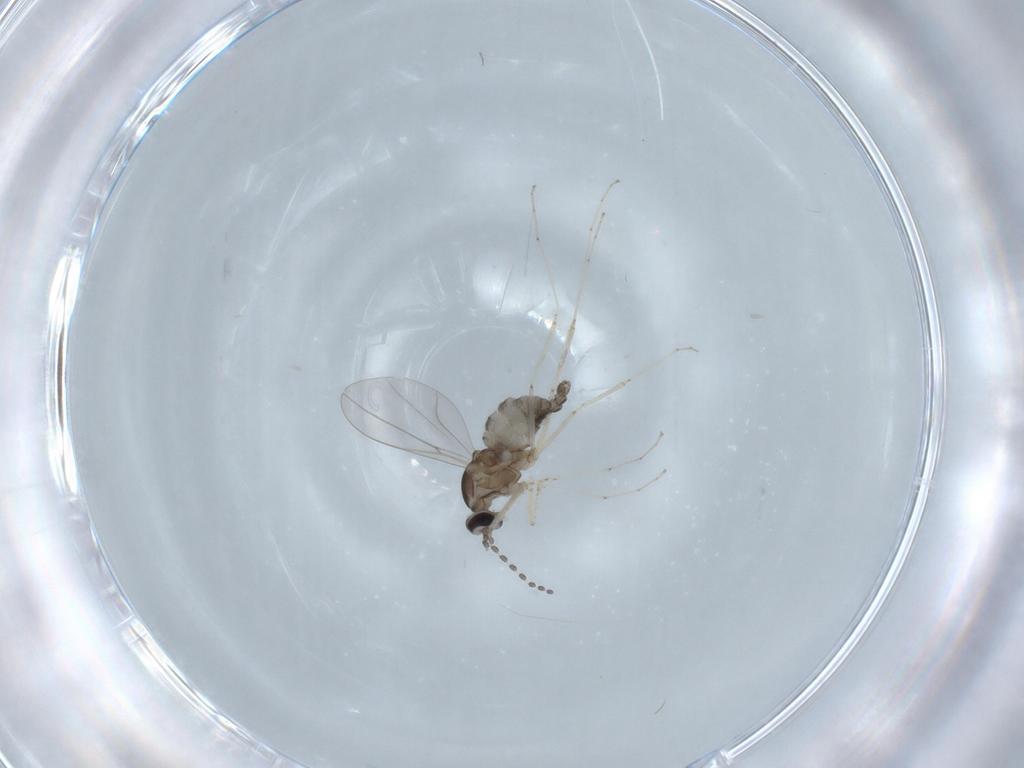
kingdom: Animalia
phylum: Arthropoda
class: Insecta
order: Diptera
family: Cecidomyiidae
